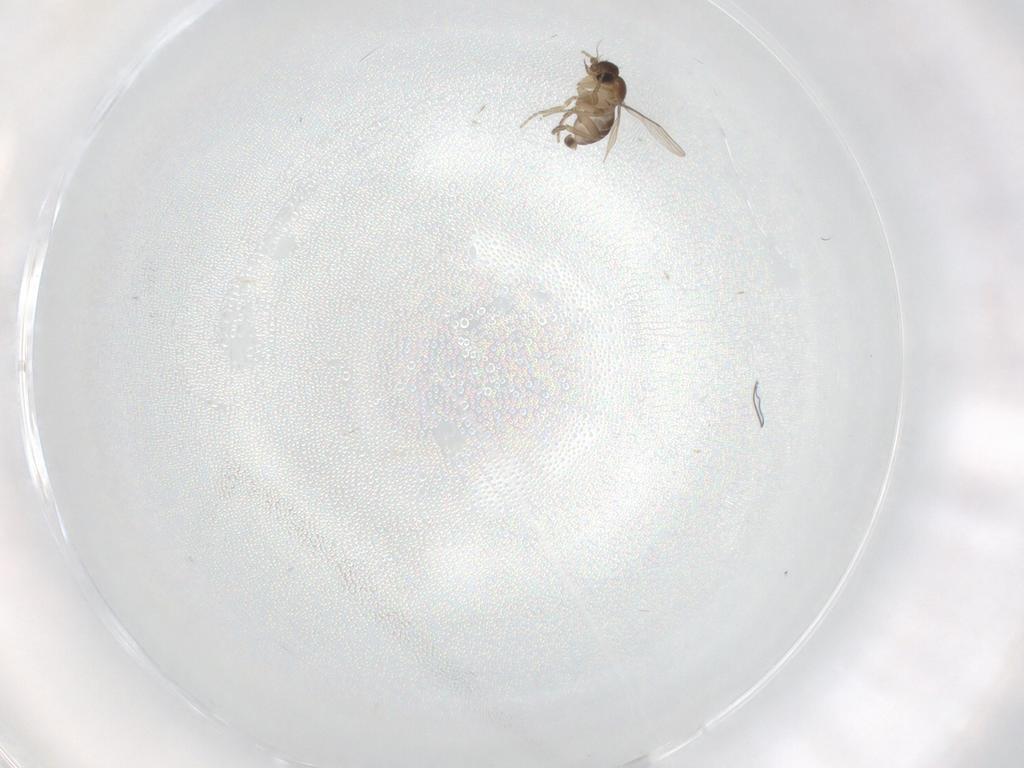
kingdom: Animalia
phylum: Arthropoda
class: Insecta
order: Diptera
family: Phoridae
